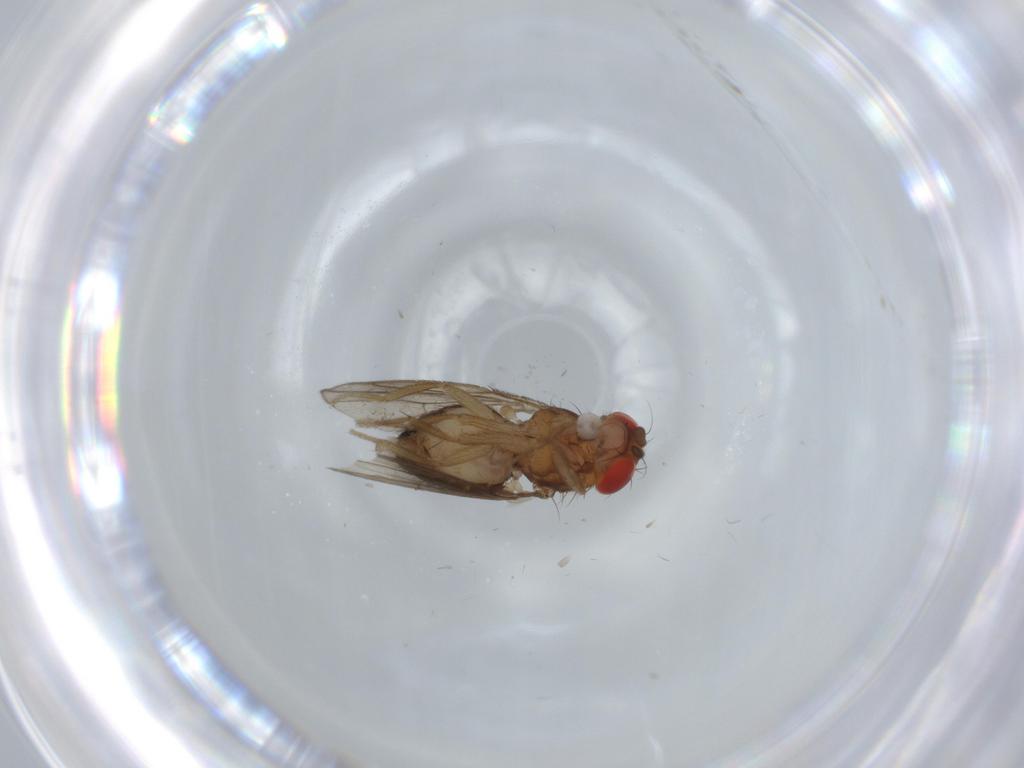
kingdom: Animalia
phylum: Arthropoda
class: Insecta
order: Diptera
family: Drosophilidae
